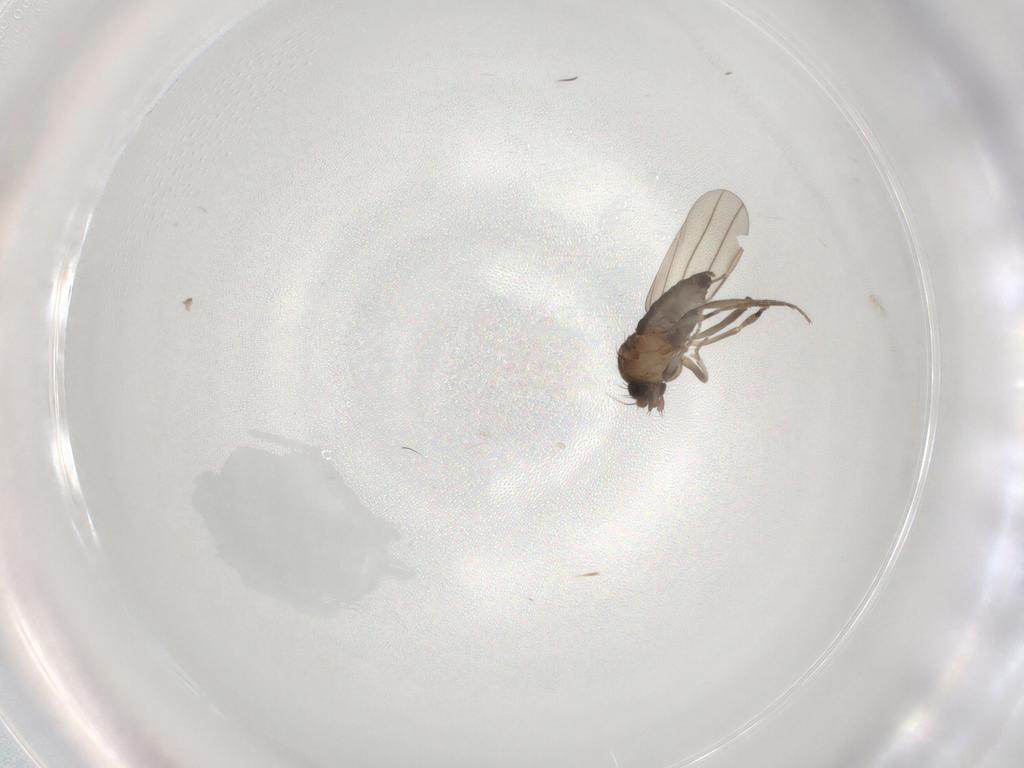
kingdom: Animalia
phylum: Arthropoda
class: Insecta
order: Diptera
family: Phoridae
